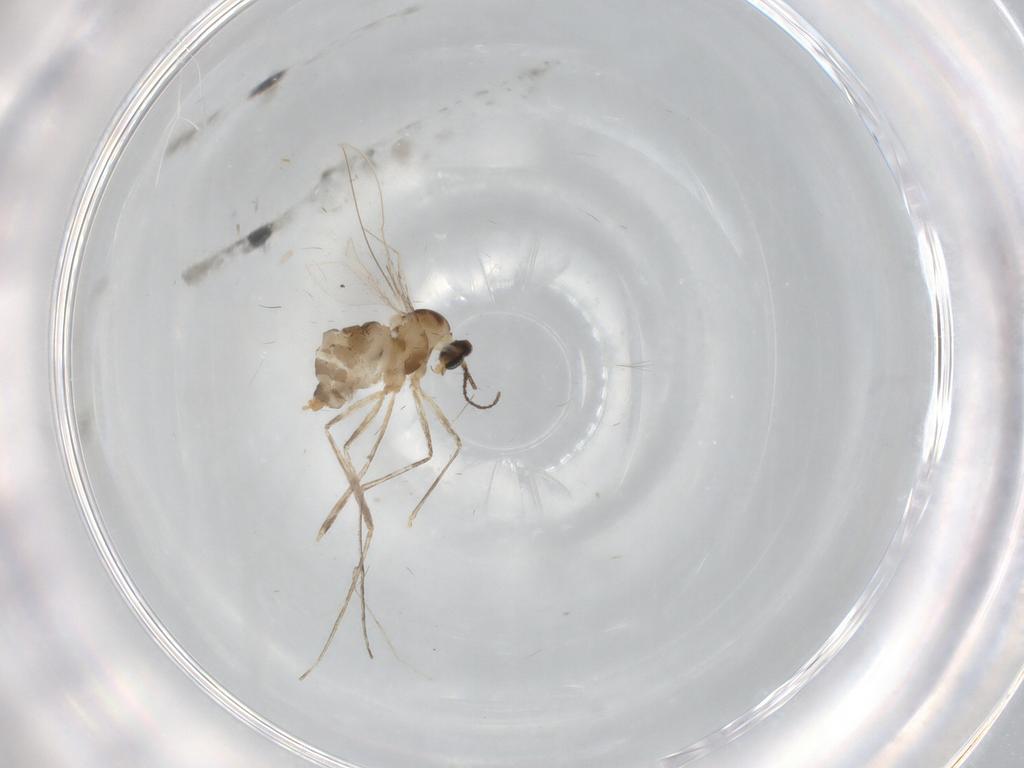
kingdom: Animalia
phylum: Arthropoda
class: Insecta
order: Diptera
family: Cecidomyiidae
